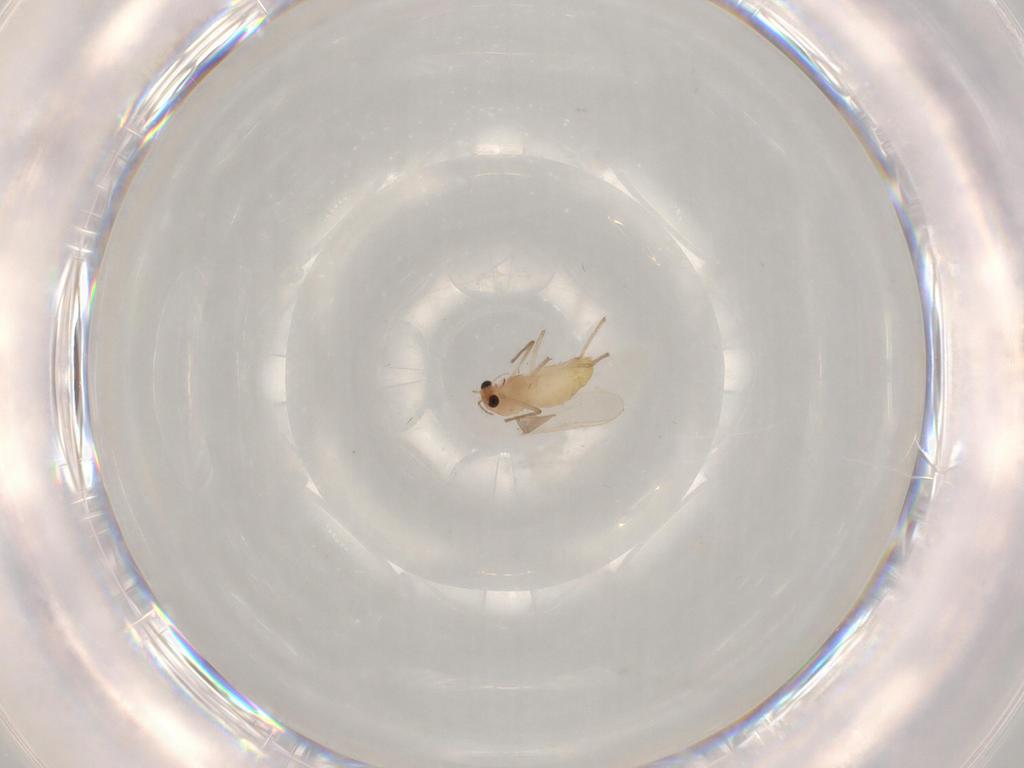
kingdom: Animalia
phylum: Arthropoda
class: Insecta
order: Diptera
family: Chironomidae
